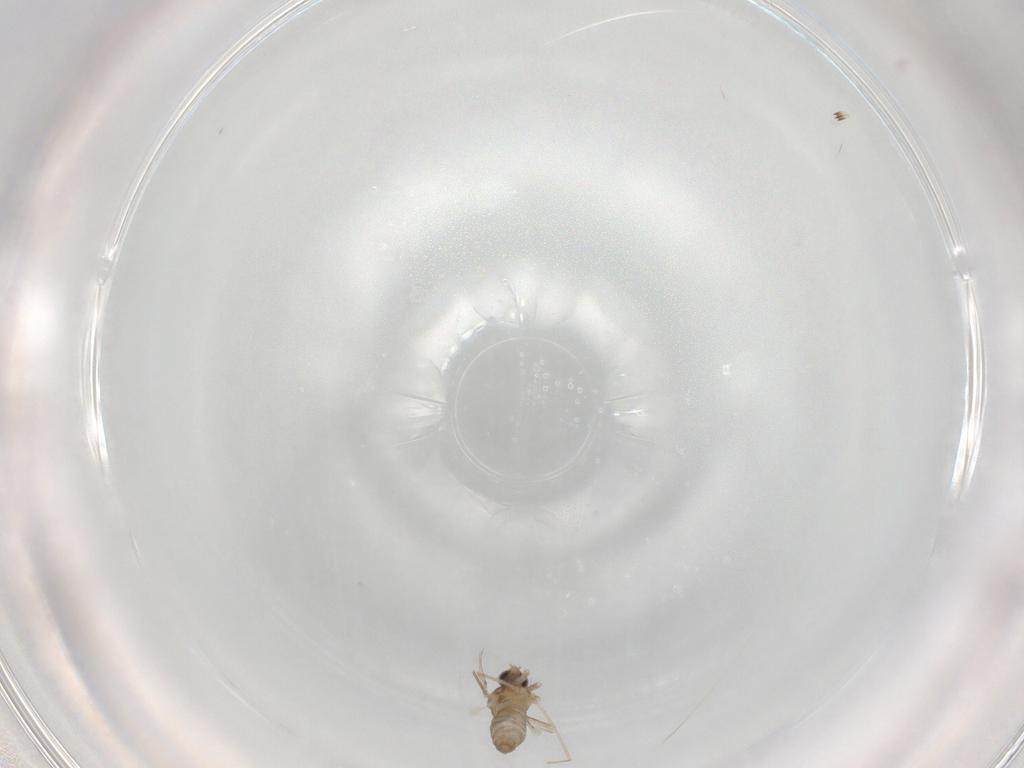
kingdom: Animalia
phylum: Arthropoda
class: Insecta
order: Diptera
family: Cecidomyiidae
